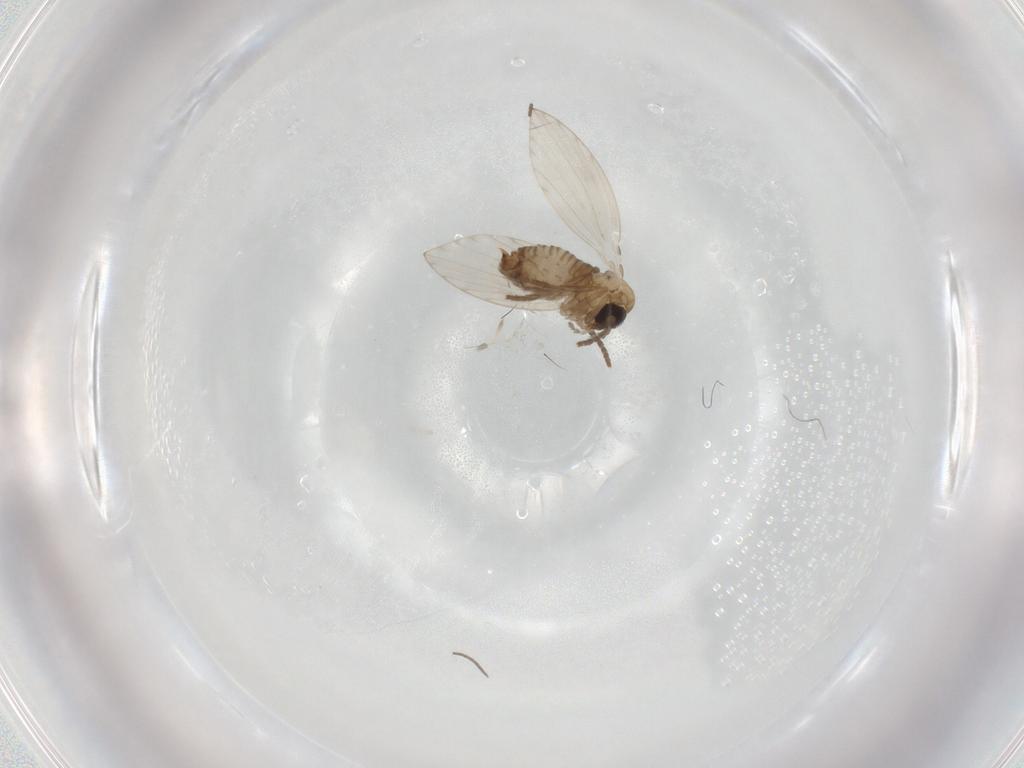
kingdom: Animalia
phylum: Arthropoda
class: Insecta
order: Diptera
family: Psychodidae
